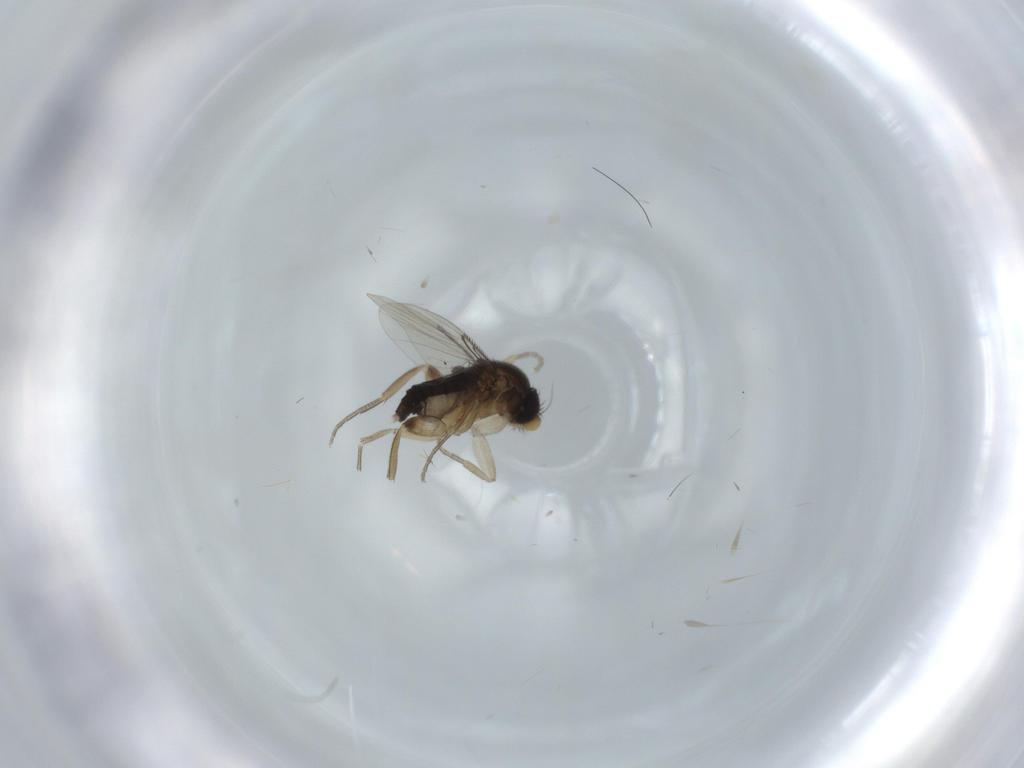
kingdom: Animalia
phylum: Arthropoda
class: Insecta
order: Diptera
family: Phoridae
